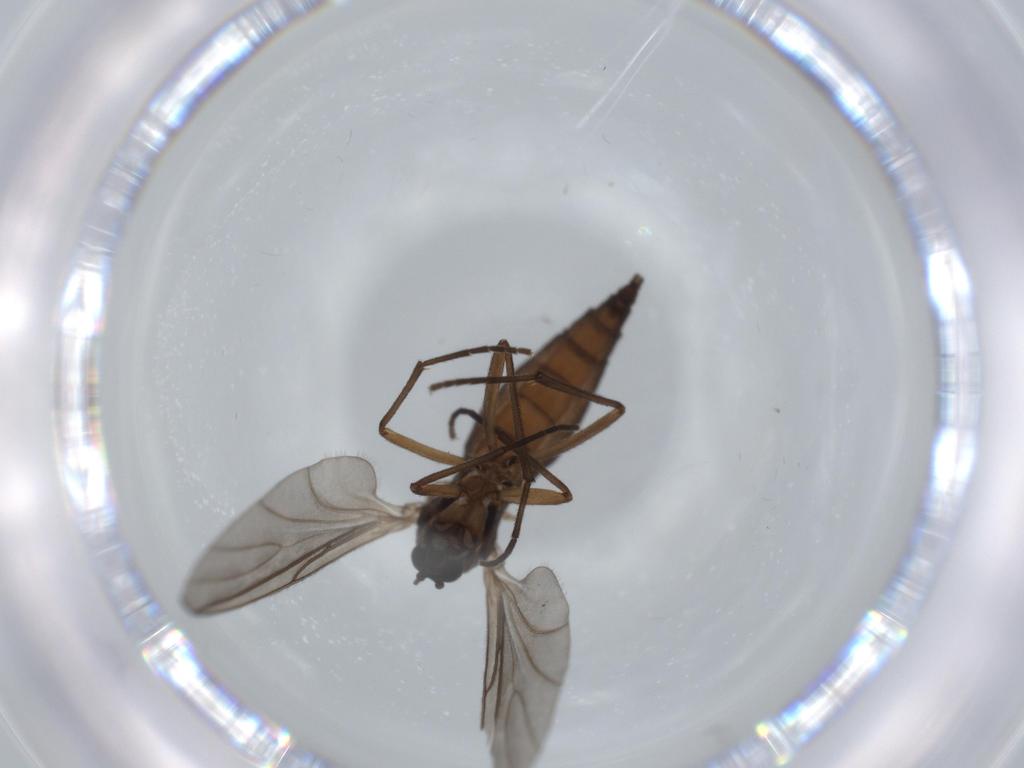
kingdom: Animalia
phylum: Arthropoda
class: Insecta
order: Diptera
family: Sciaridae
